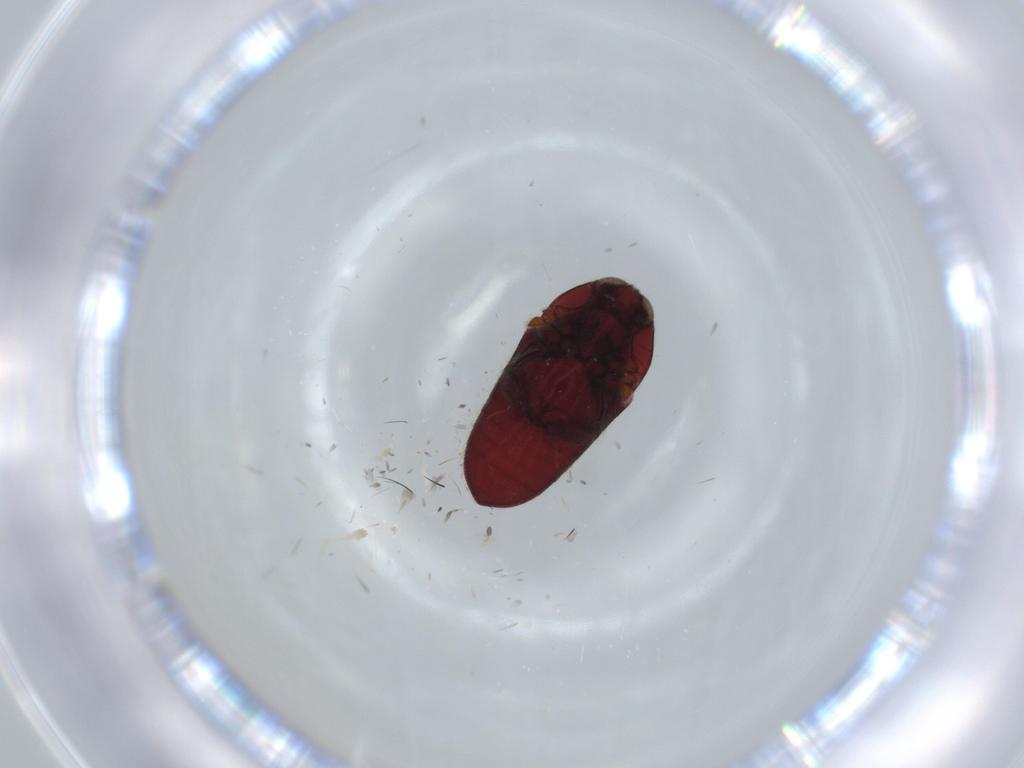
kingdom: Animalia
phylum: Arthropoda
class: Insecta
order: Coleoptera
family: Throscidae
